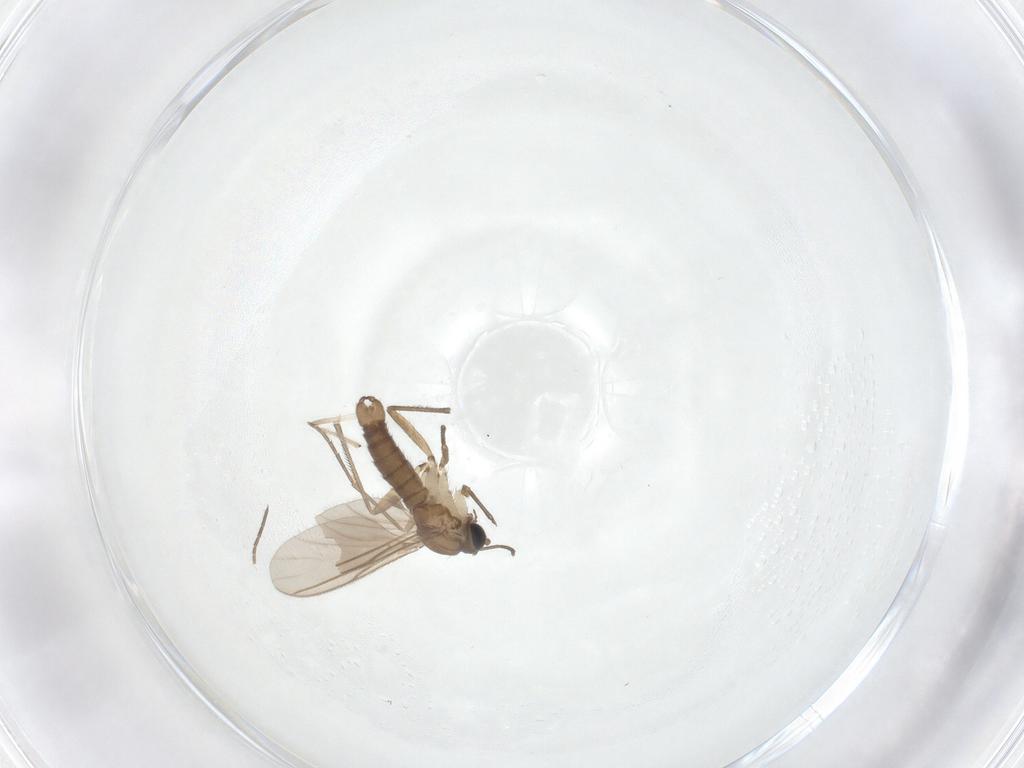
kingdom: Animalia
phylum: Arthropoda
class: Insecta
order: Diptera
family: Sciaridae
